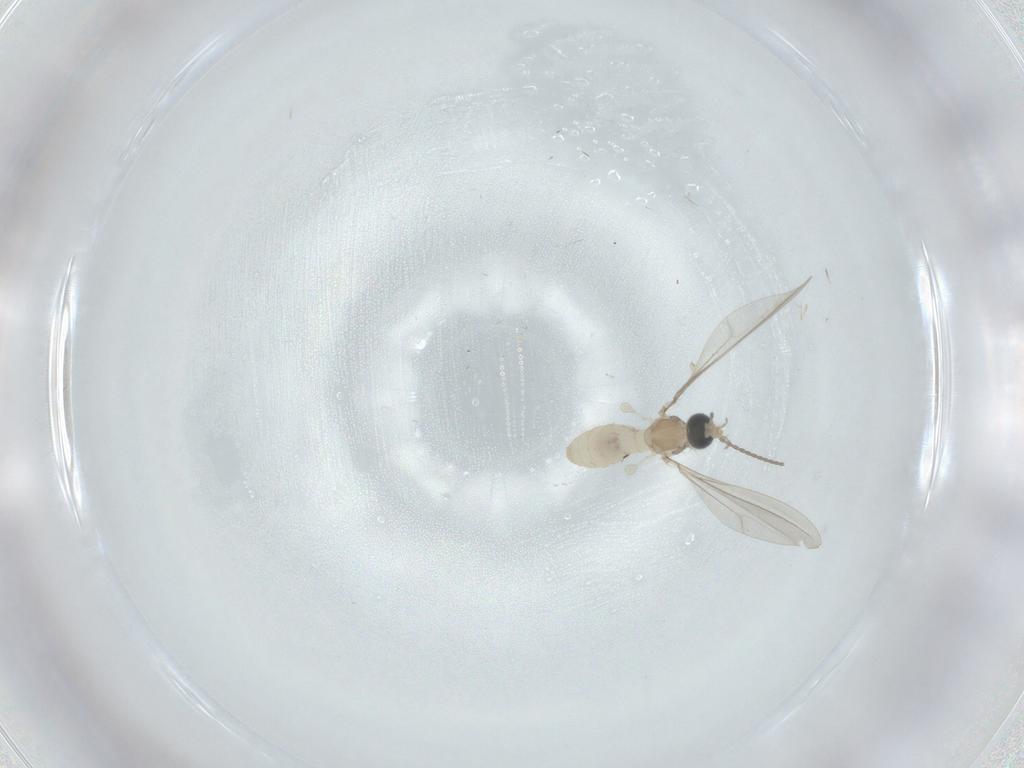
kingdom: Animalia
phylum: Arthropoda
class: Insecta
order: Diptera
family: Cecidomyiidae
